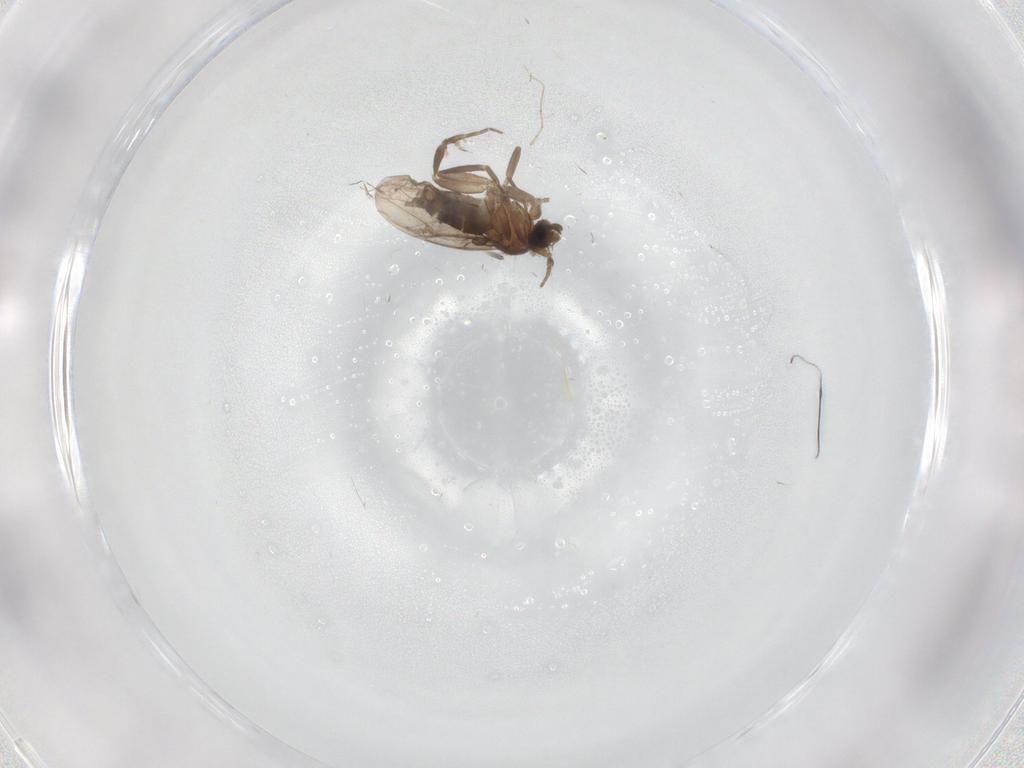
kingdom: Animalia
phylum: Arthropoda
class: Insecta
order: Diptera
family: Cecidomyiidae
